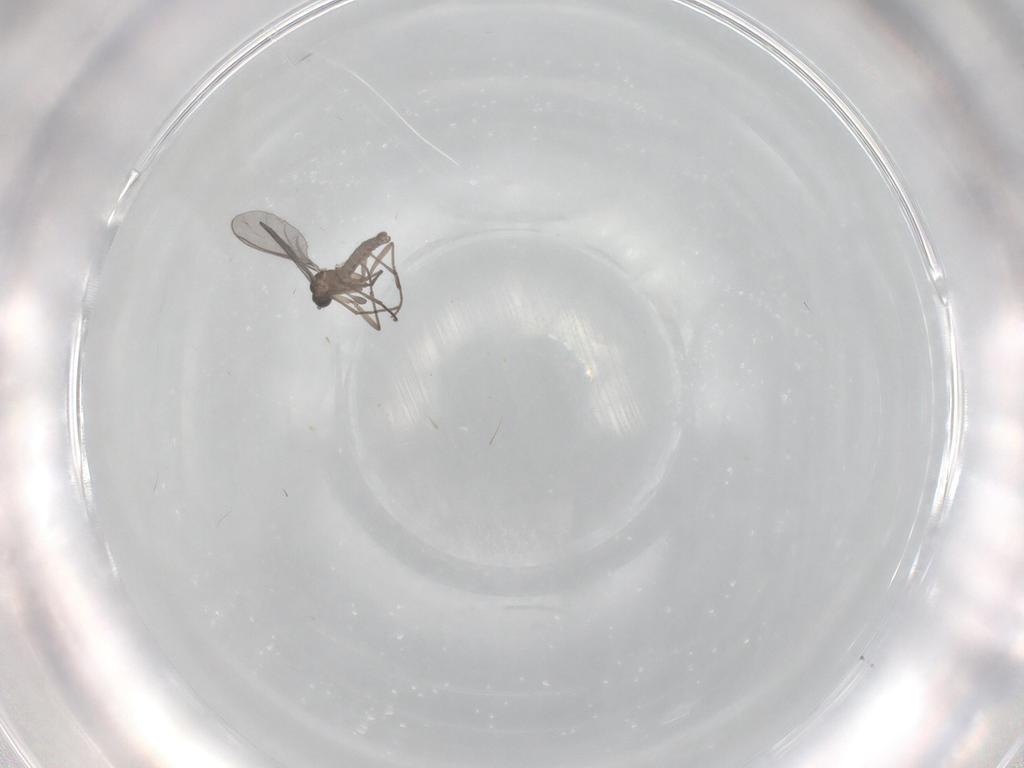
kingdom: Animalia
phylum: Arthropoda
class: Insecta
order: Diptera
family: Sciaridae
